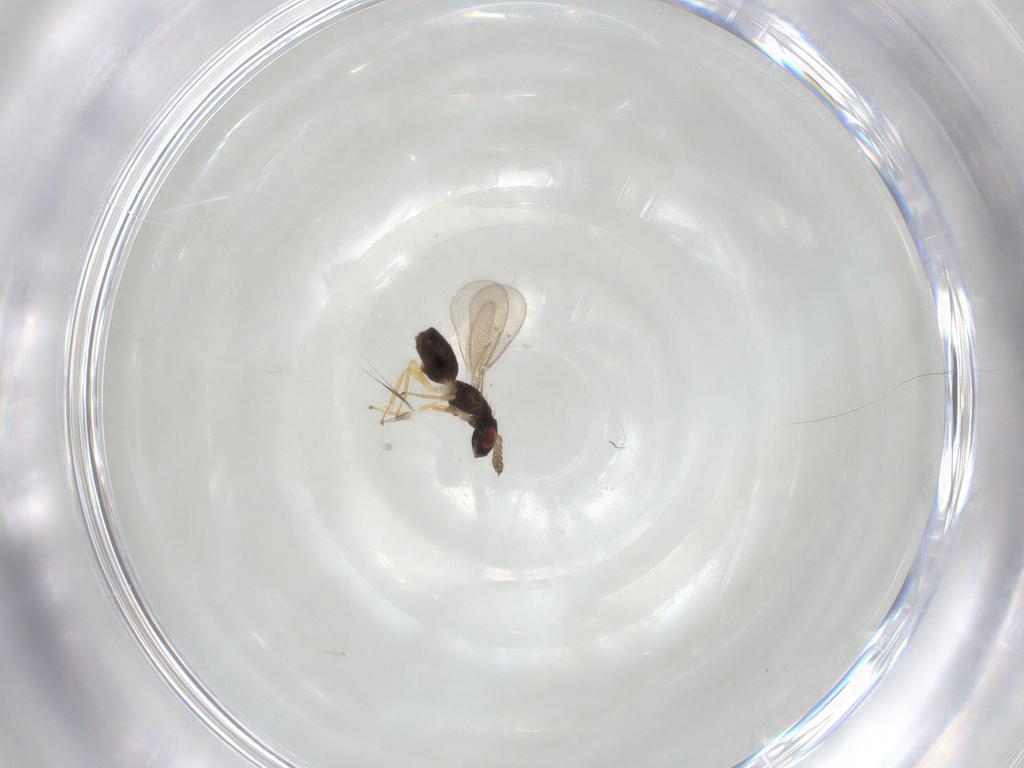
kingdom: Animalia
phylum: Arthropoda
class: Insecta
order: Hymenoptera
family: Eulophidae
